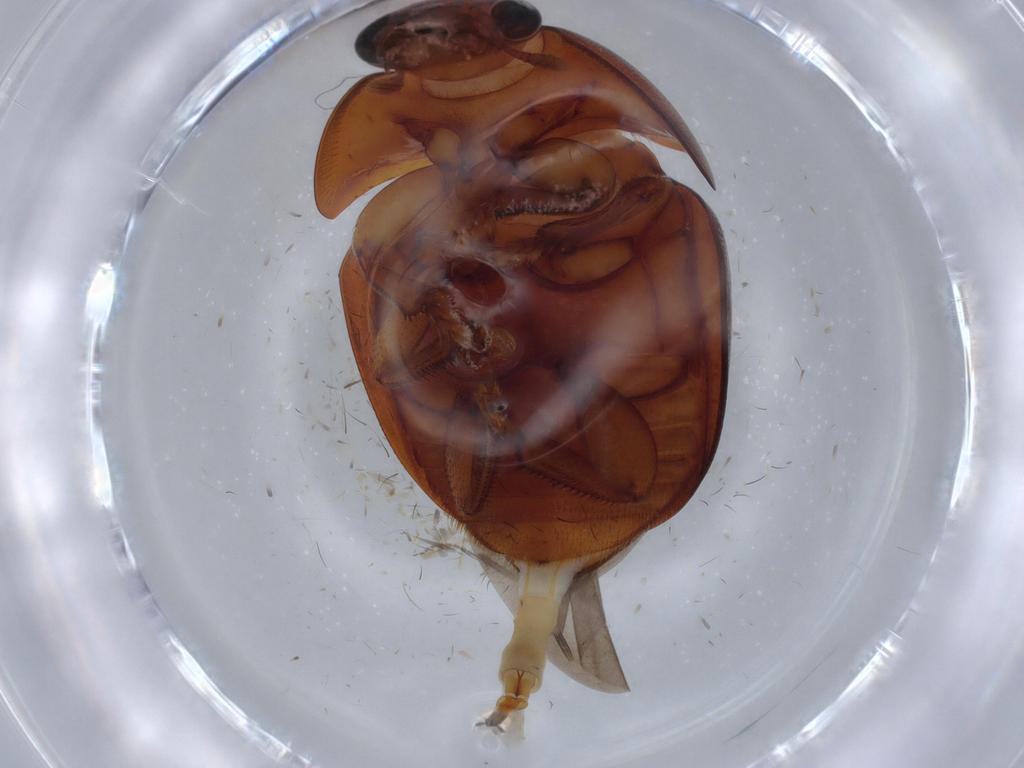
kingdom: Animalia
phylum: Arthropoda
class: Insecta
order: Coleoptera
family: Nitidulidae
